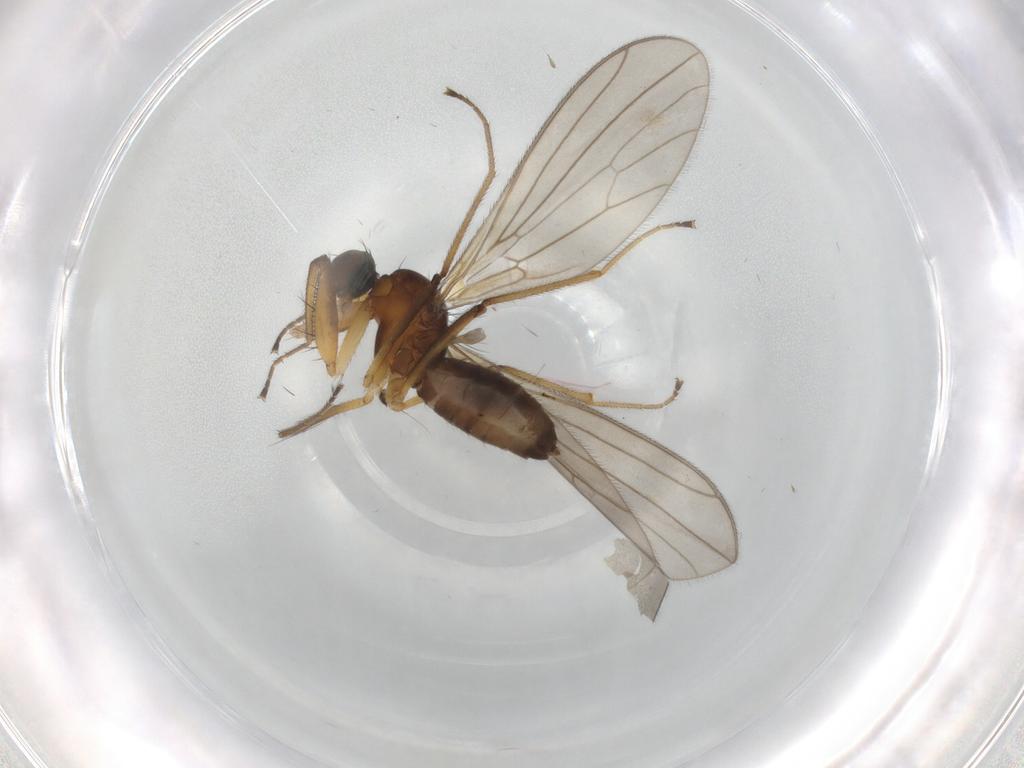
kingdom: Animalia
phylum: Arthropoda
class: Insecta
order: Diptera
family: Empididae
